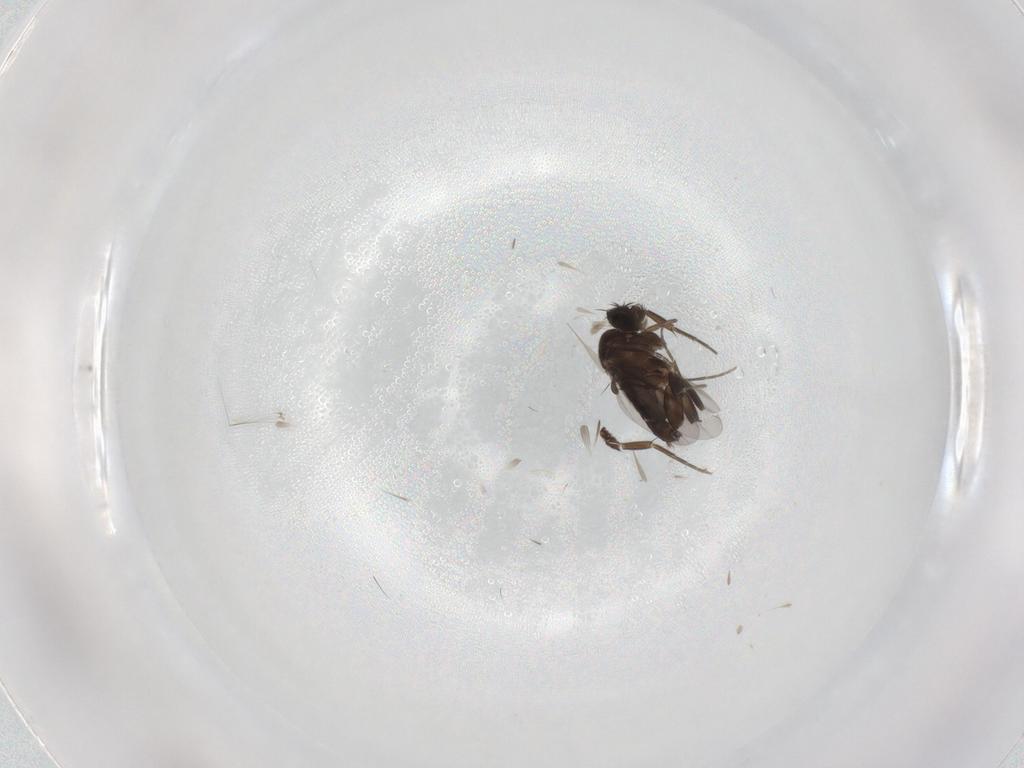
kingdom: Animalia
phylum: Arthropoda
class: Insecta
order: Diptera
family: Phoridae
